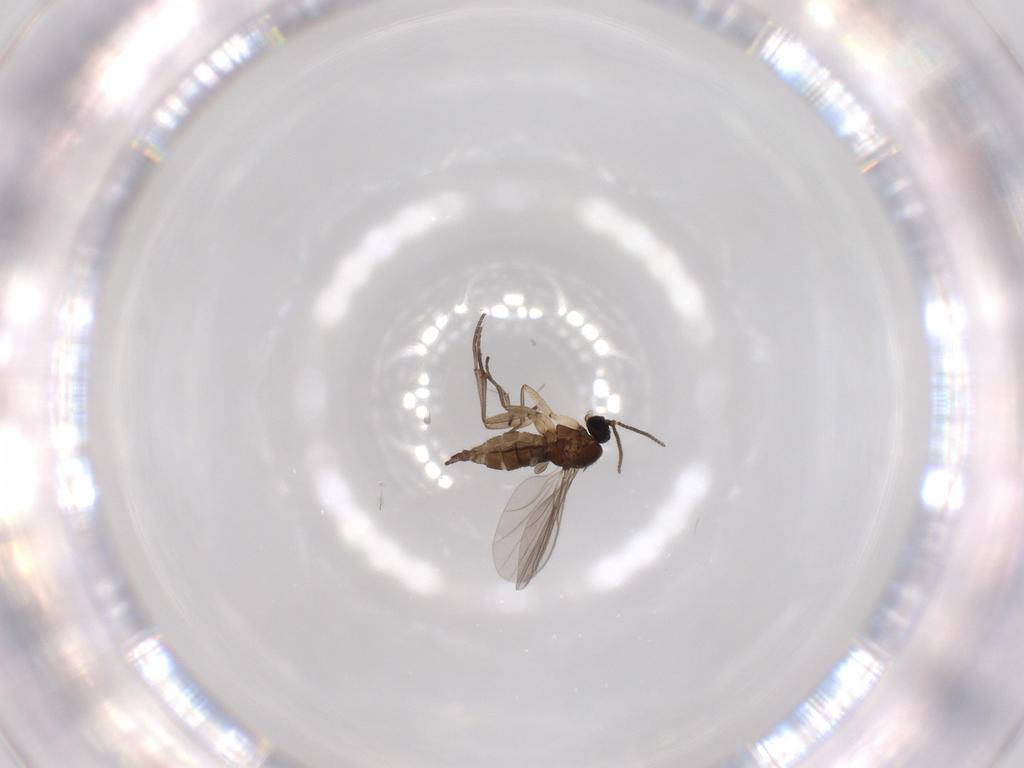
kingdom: Animalia
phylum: Arthropoda
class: Insecta
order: Diptera
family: Sciaridae
